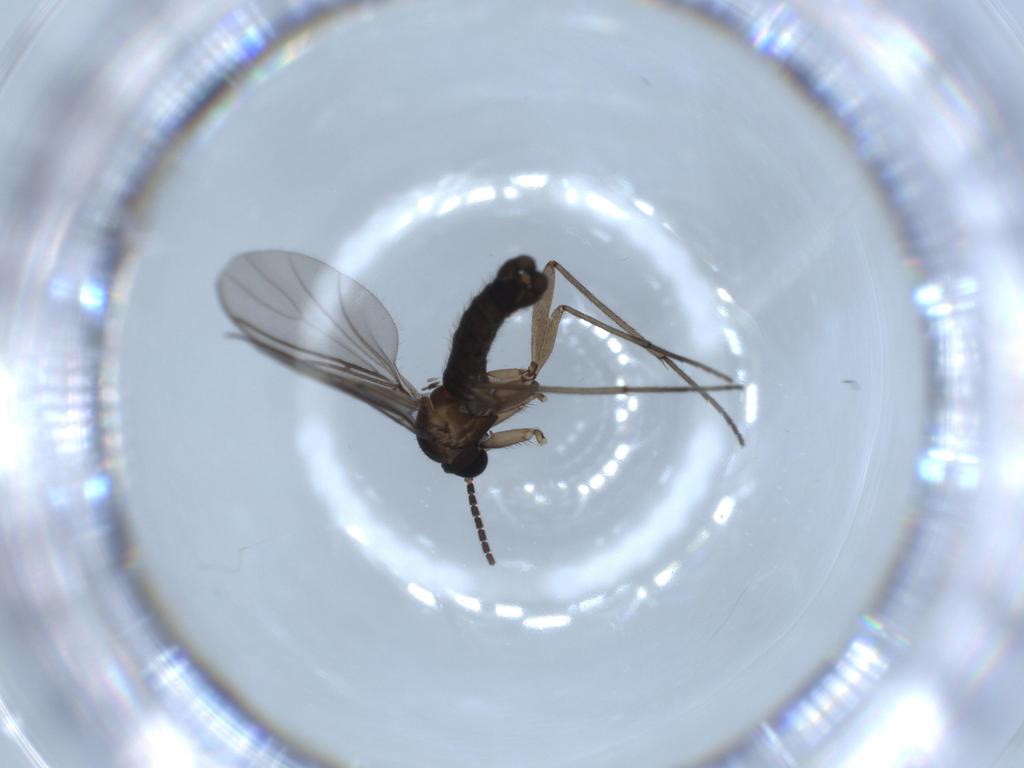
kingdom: Animalia
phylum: Arthropoda
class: Insecta
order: Diptera
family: Sciaridae
